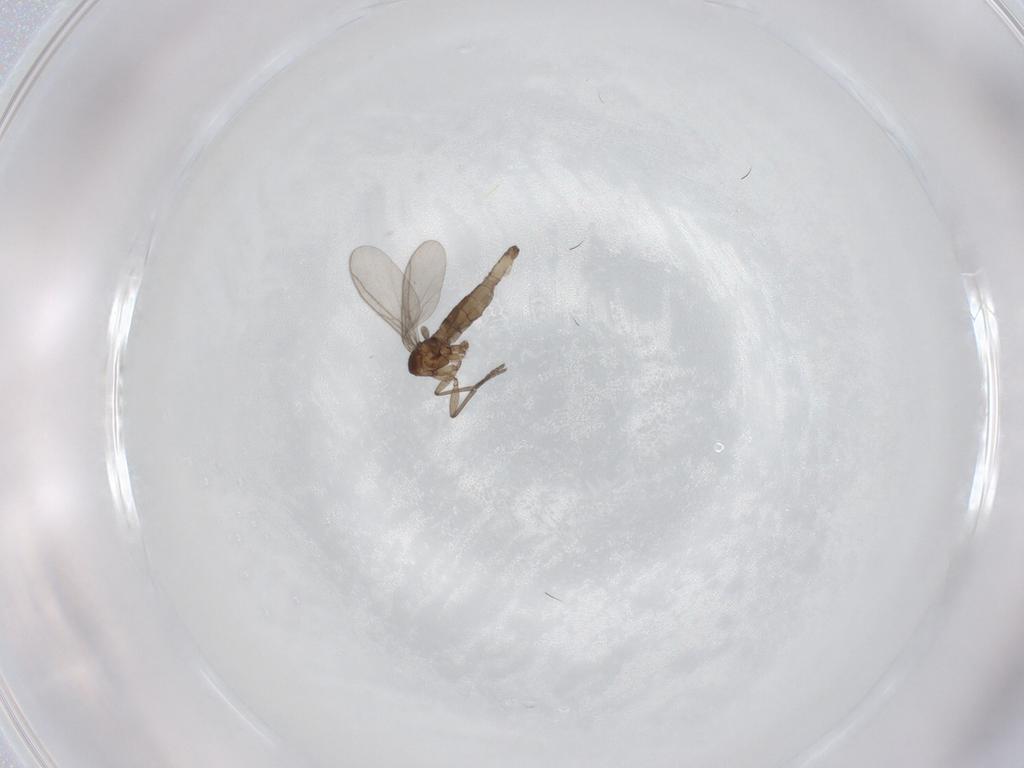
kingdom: Animalia
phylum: Arthropoda
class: Insecta
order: Diptera
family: Sciaridae
